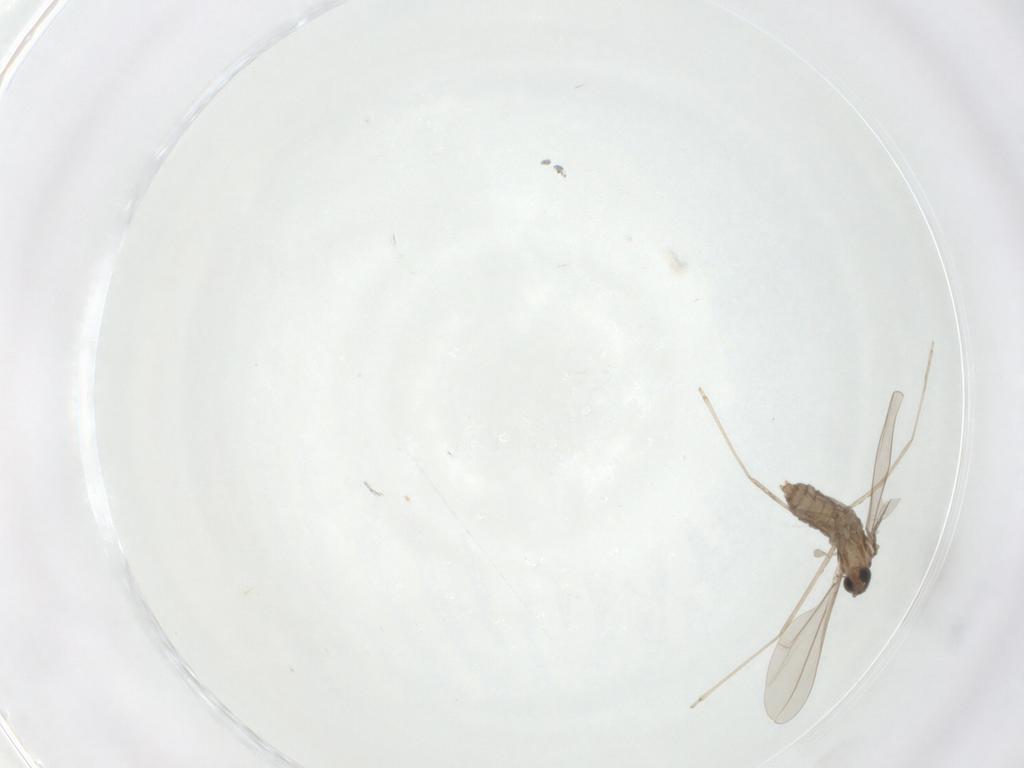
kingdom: Animalia
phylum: Arthropoda
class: Insecta
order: Diptera
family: Cecidomyiidae
